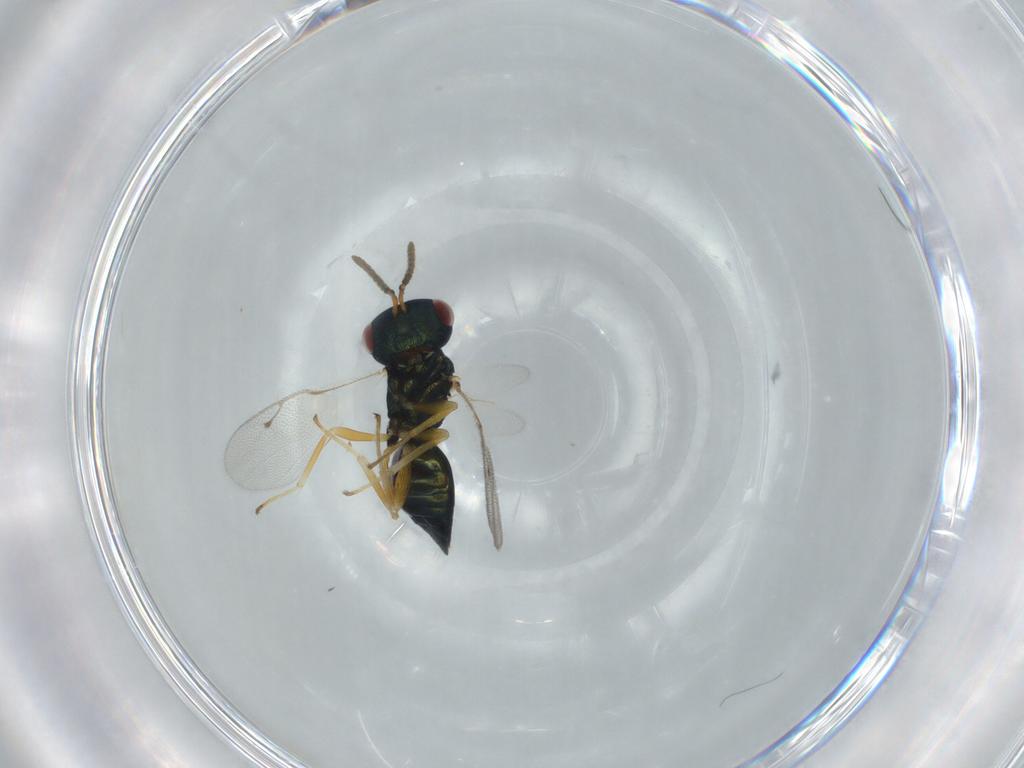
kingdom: Animalia
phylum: Arthropoda
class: Insecta
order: Hymenoptera
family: Pteromalidae
